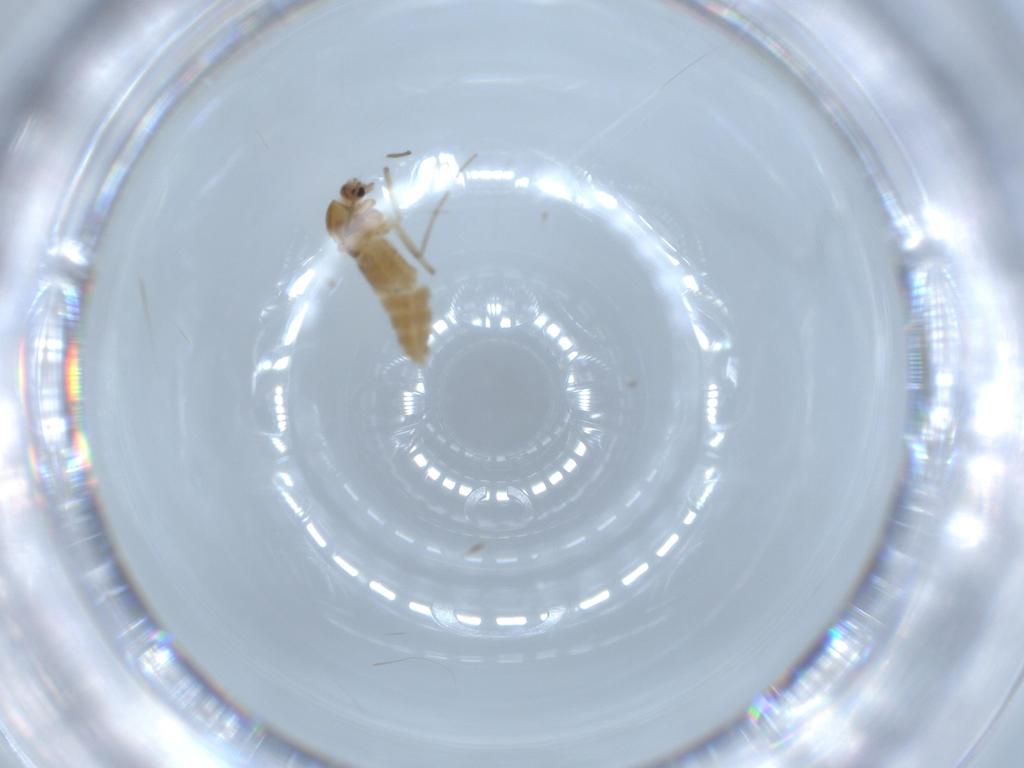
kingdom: Animalia
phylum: Arthropoda
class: Insecta
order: Diptera
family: Chironomidae
